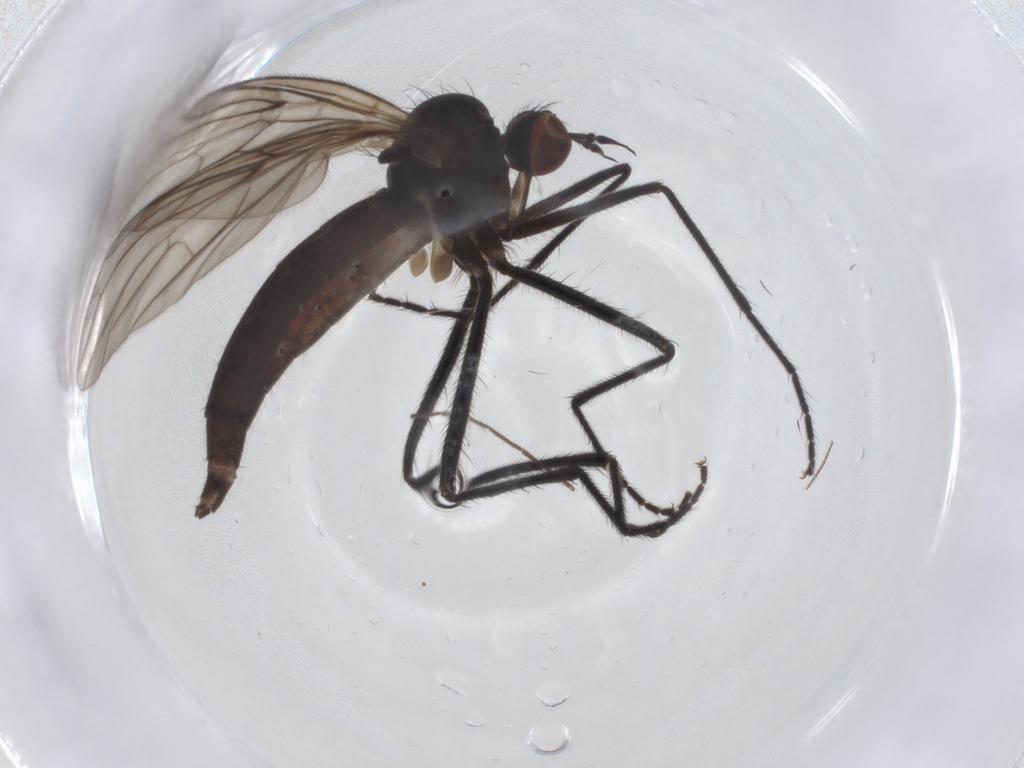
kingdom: Animalia
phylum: Arthropoda
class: Insecta
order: Diptera
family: Empididae
